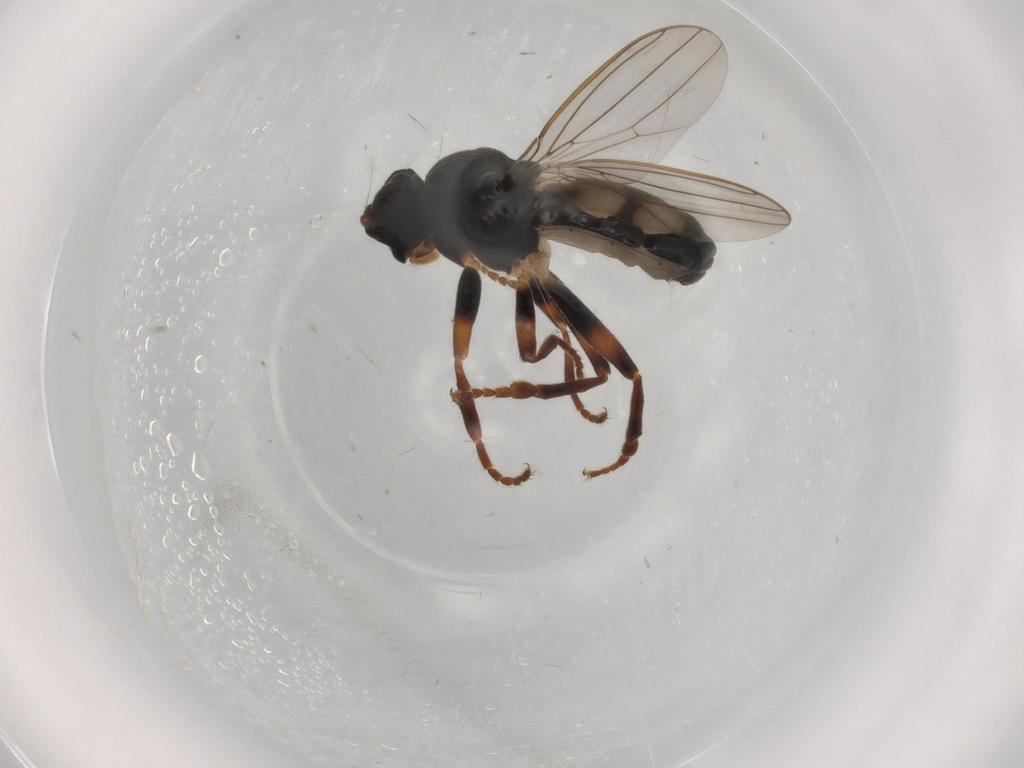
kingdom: Animalia
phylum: Arthropoda
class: Insecta
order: Diptera
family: Sphaeroceridae
